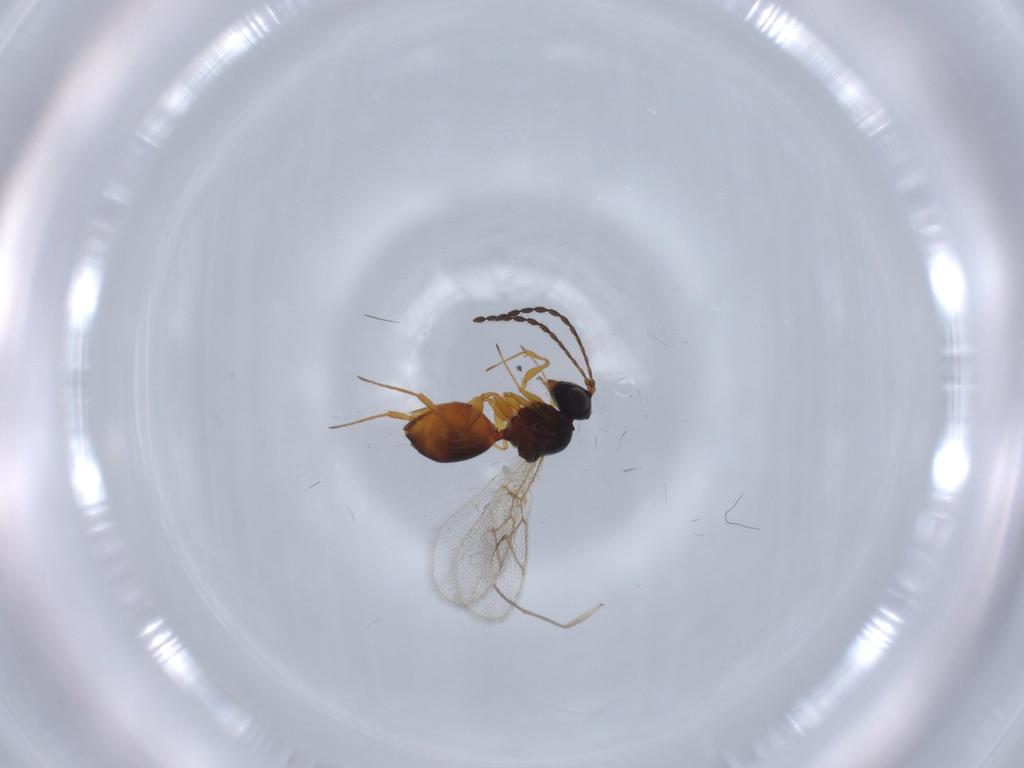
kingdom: Animalia
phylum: Arthropoda
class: Insecta
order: Hymenoptera
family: Figitidae
